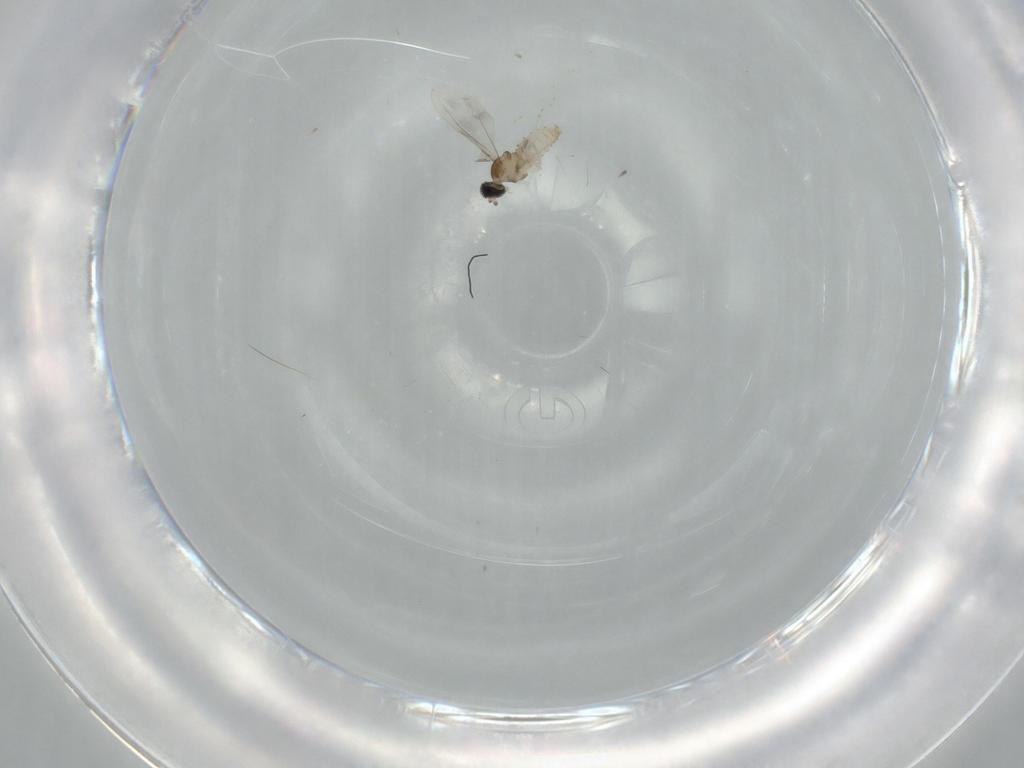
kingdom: Animalia
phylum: Arthropoda
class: Insecta
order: Diptera
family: Cecidomyiidae
